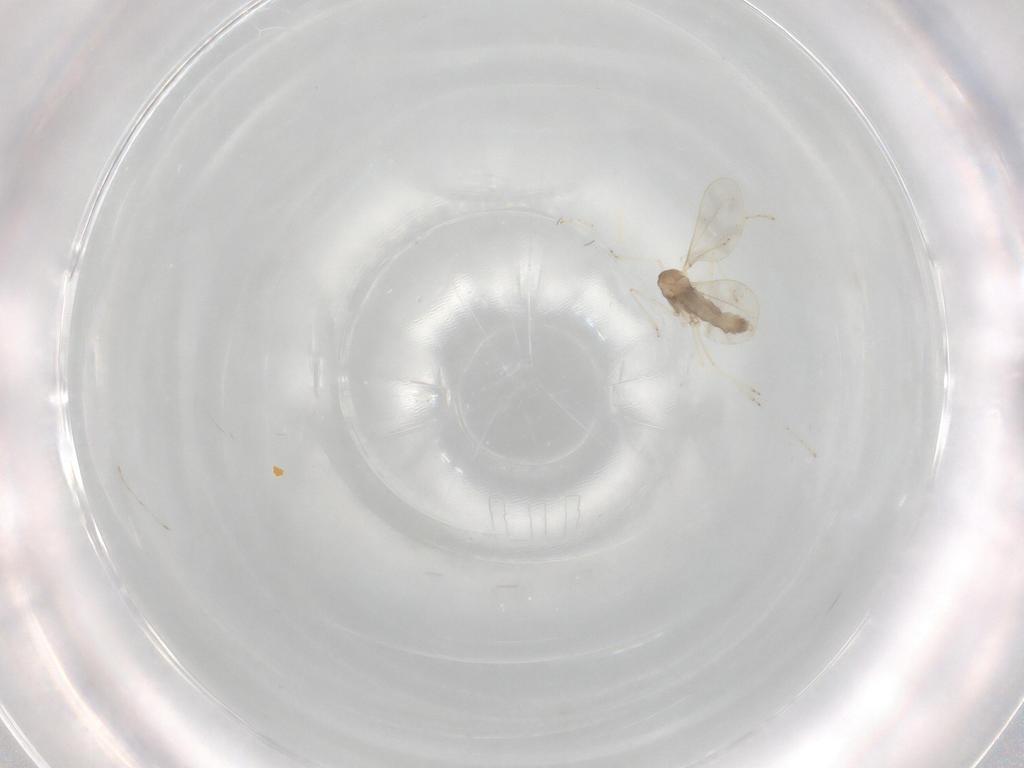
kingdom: Animalia
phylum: Arthropoda
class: Insecta
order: Diptera
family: Cecidomyiidae
